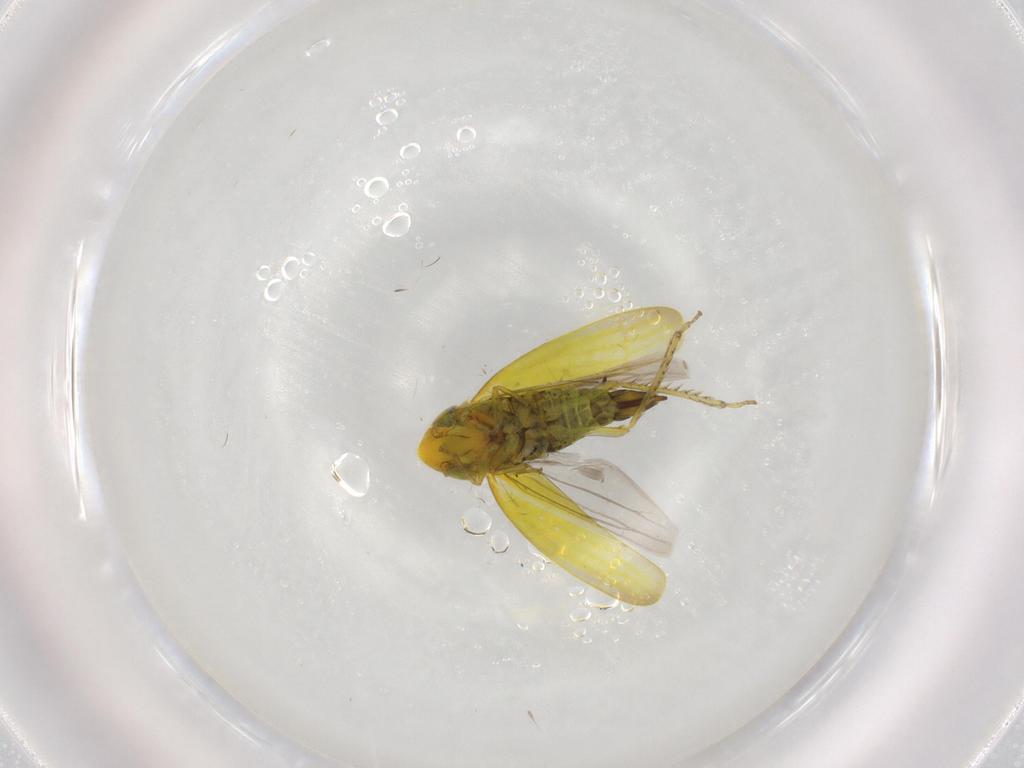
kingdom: Animalia
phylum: Arthropoda
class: Insecta
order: Hemiptera
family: Cicadellidae
